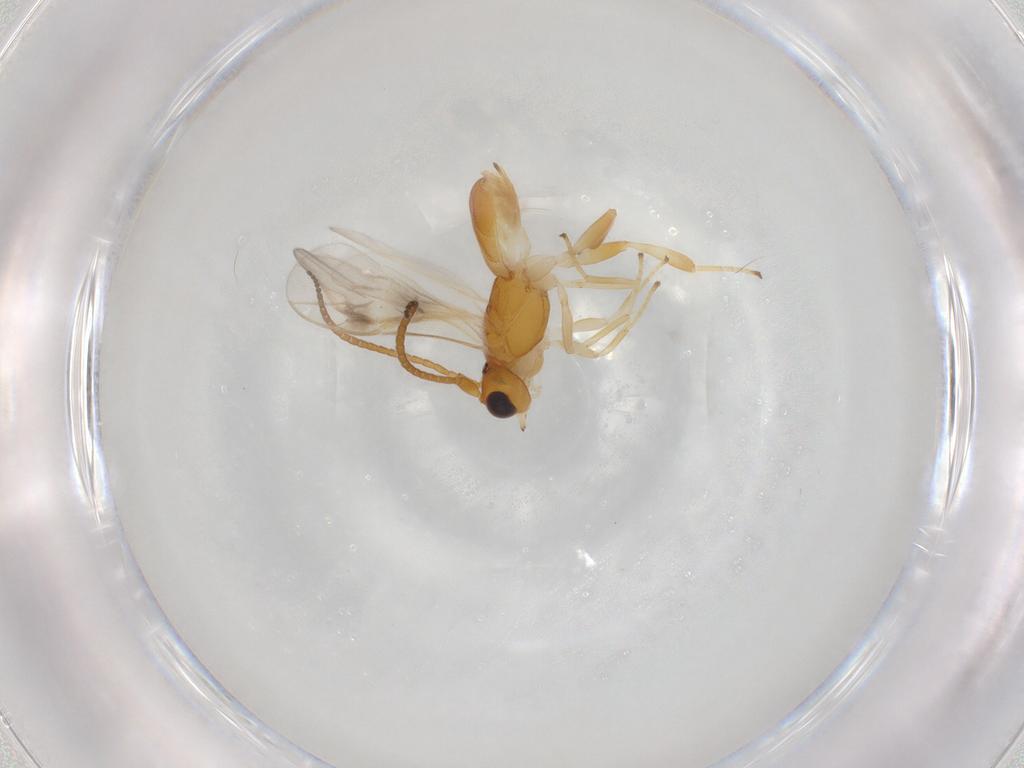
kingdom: Animalia
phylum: Arthropoda
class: Insecta
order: Hymenoptera
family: Braconidae
